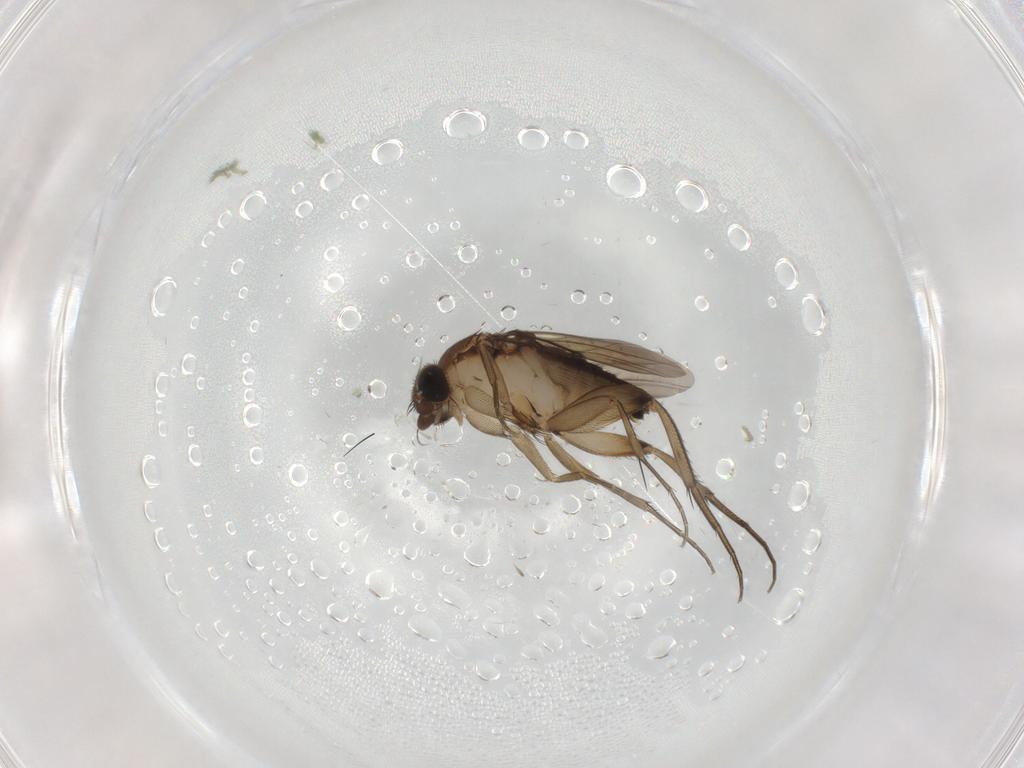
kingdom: Animalia
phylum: Arthropoda
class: Insecta
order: Diptera
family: Phoridae
